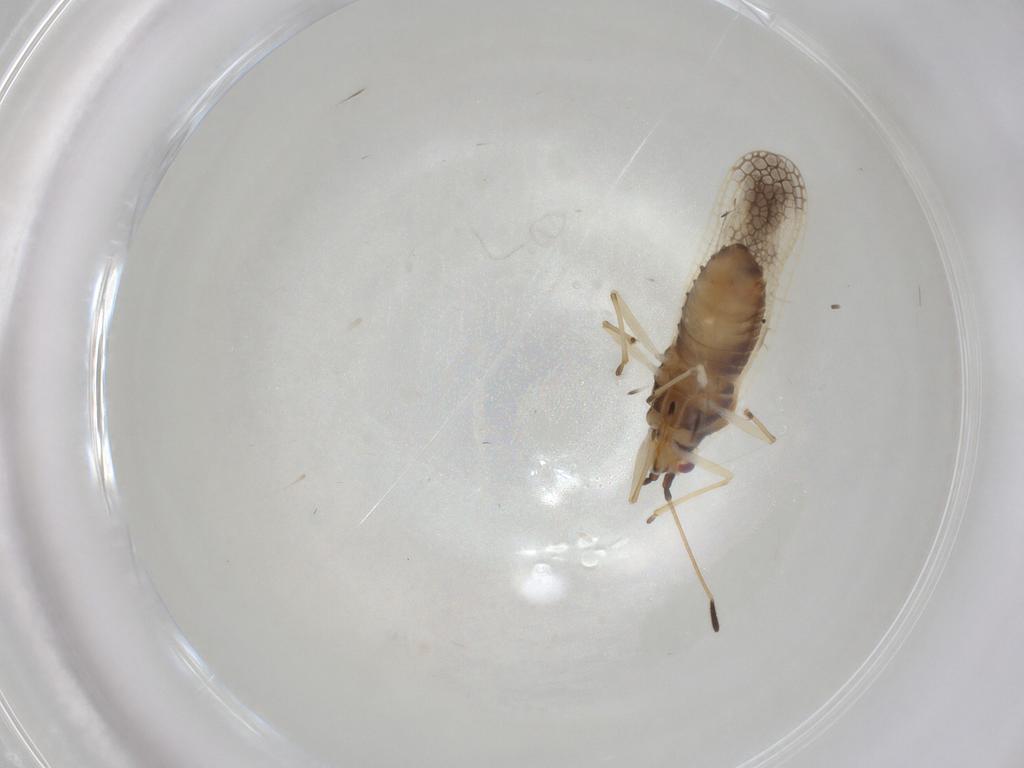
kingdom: Animalia
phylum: Arthropoda
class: Insecta
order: Hemiptera
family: Tingidae
